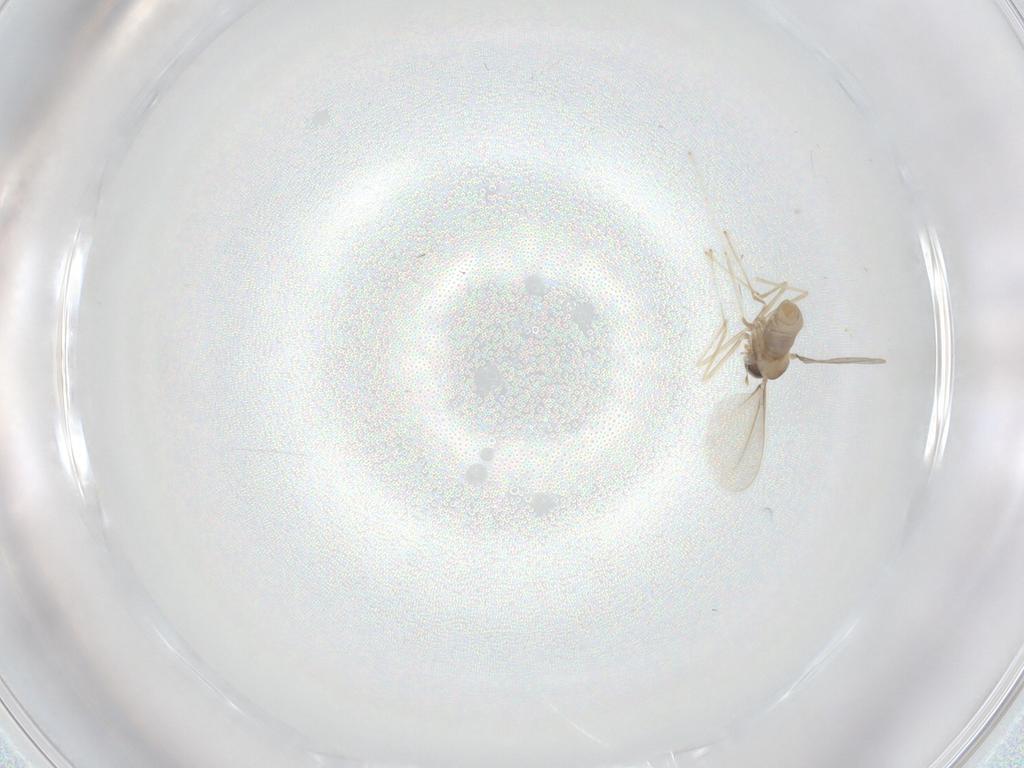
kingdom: Animalia
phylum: Arthropoda
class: Insecta
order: Diptera
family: Cecidomyiidae
